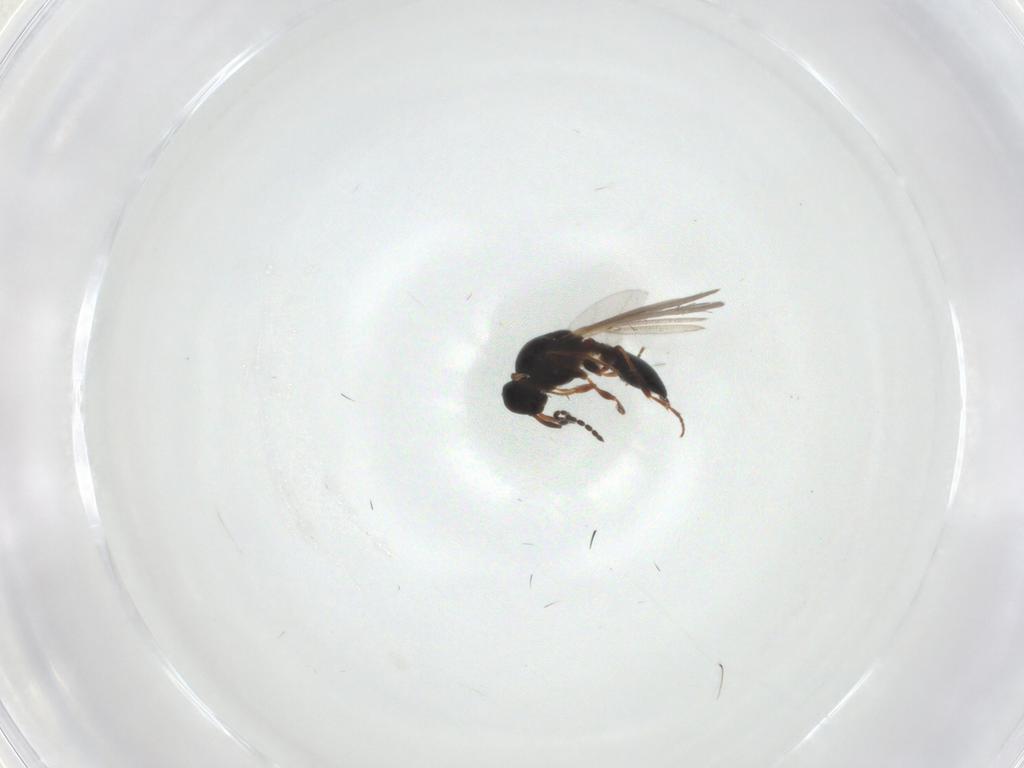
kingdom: Animalia
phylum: Arthropoda
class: Insecta
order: Hymenoptera
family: Platygastridae
